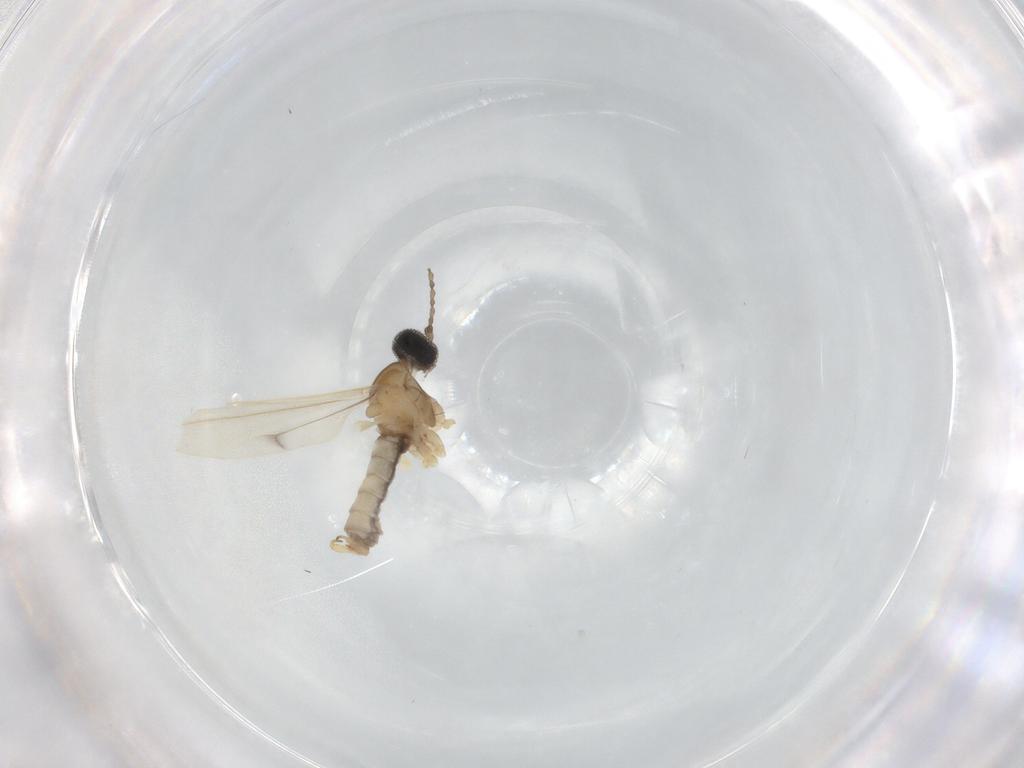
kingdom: Animalia
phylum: Arthropoda
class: Insecta
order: Diptera
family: Cecidomyiidae
